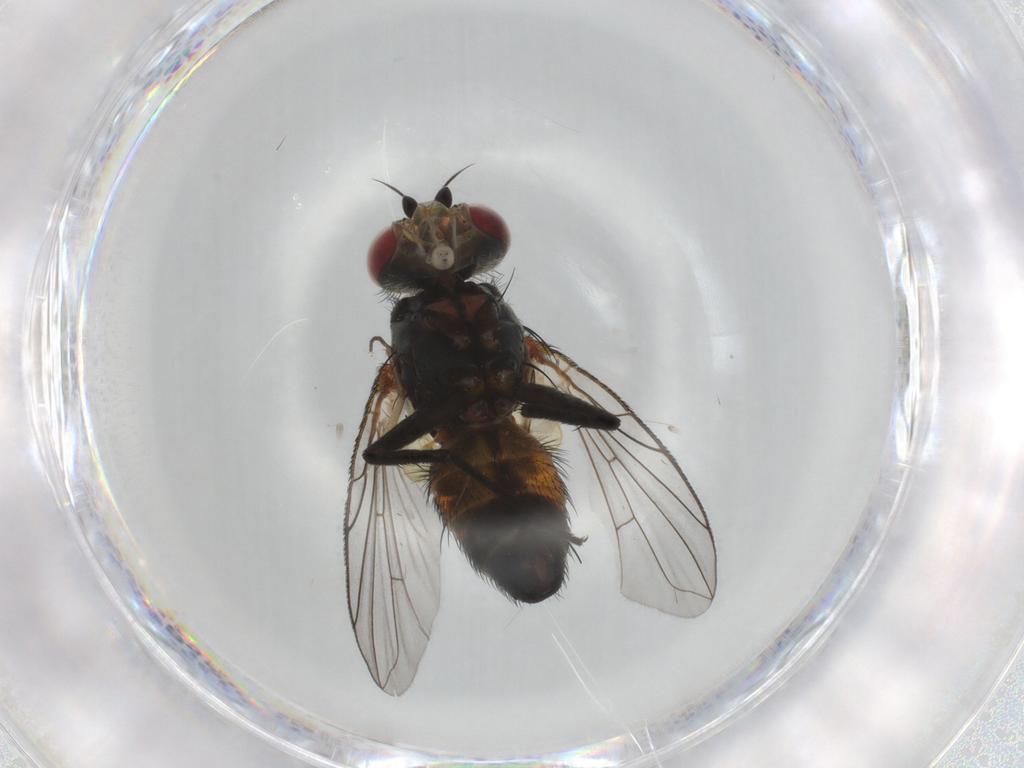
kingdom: Animalia
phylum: Arthropoda
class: Insecta
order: Diptera
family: Tachinidae
